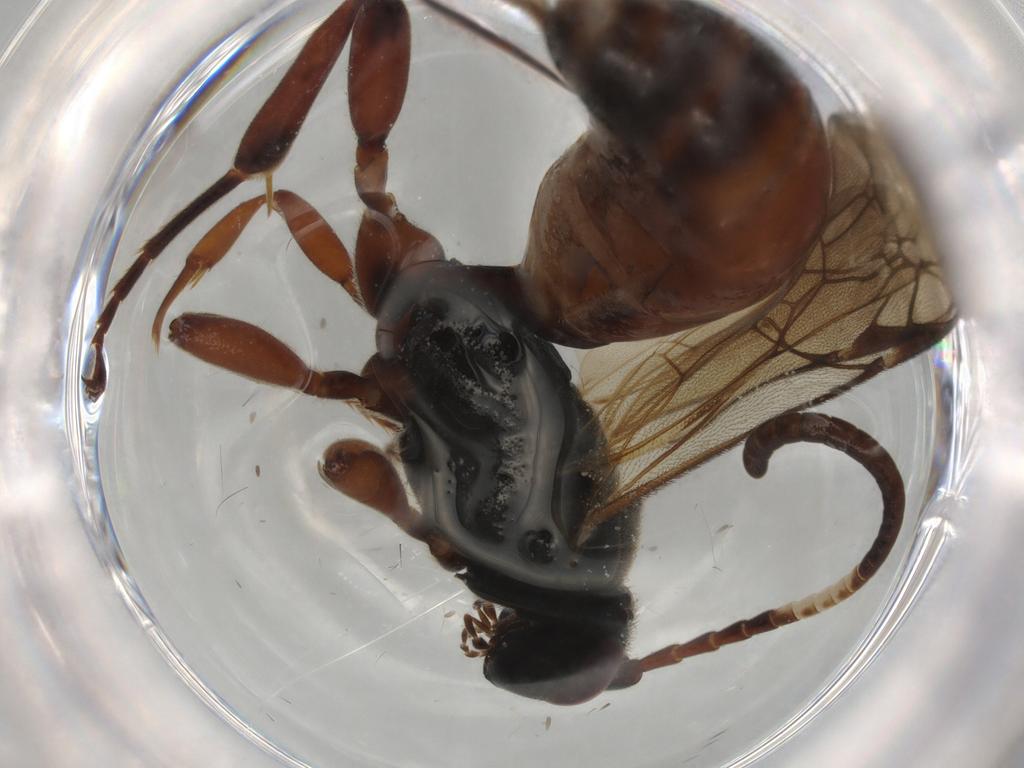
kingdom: Animalia
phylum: Arthropoda
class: Insecta
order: Hymenoptera
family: Ichneumonidae
